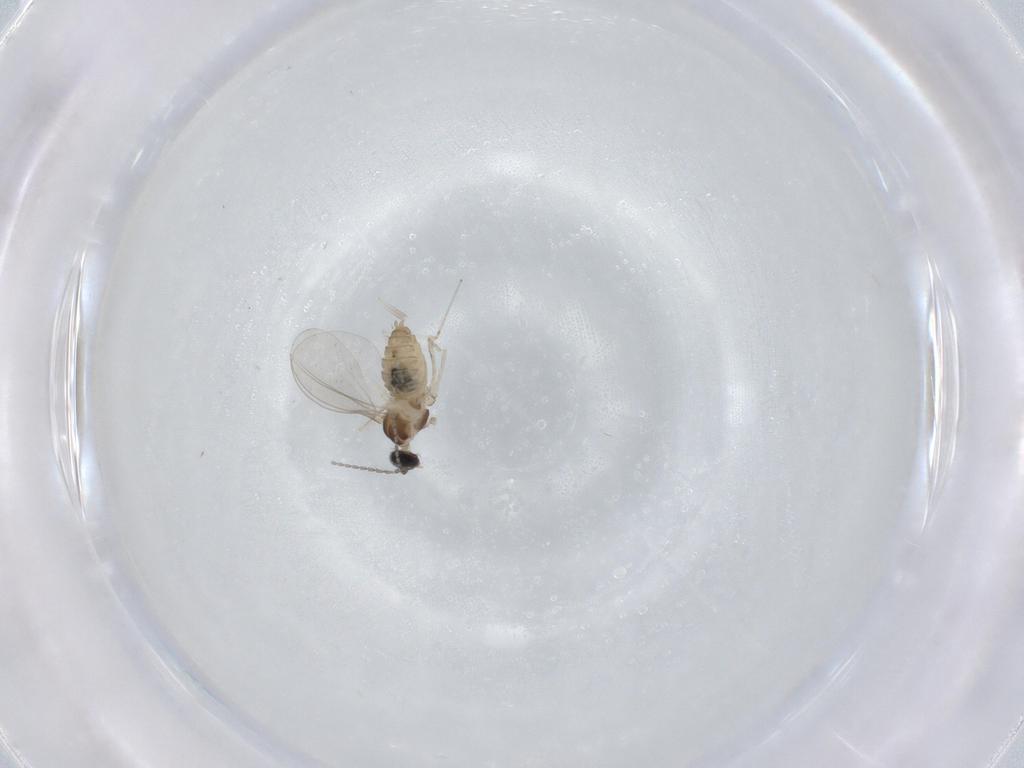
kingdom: Animalia
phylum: Arthropoda
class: Insecta
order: Diptera
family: Cecidomyiidae
